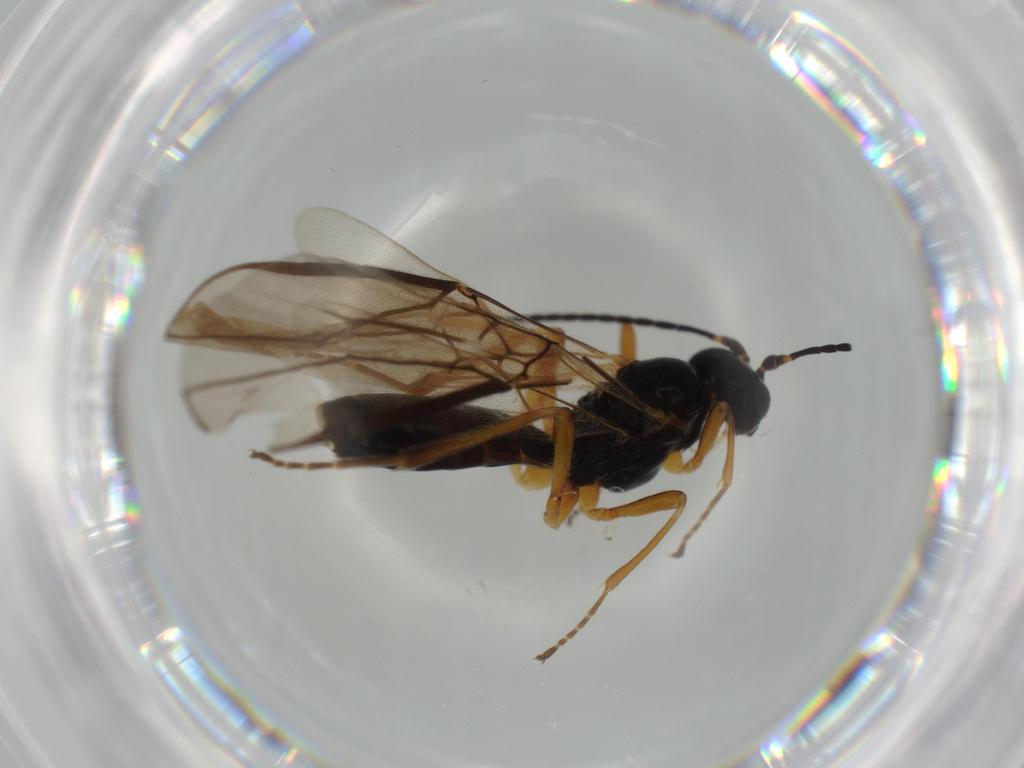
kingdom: Animalia
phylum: Arthropoda
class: Insecta
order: Hymenoptera
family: Braconidae
